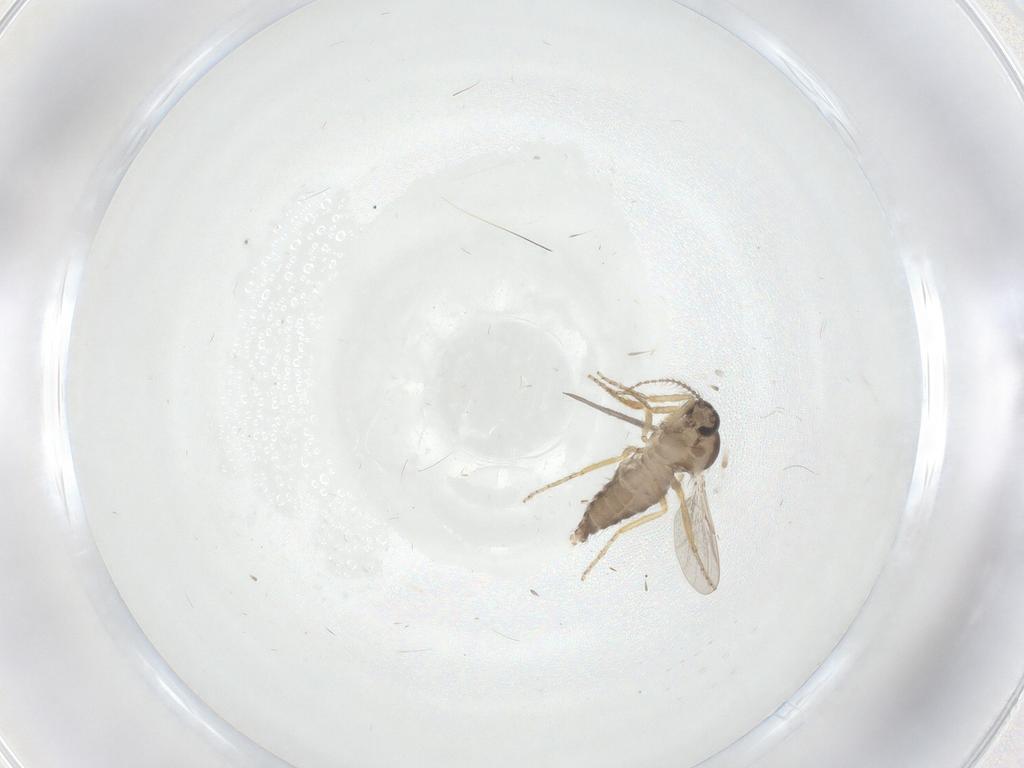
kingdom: Animalia
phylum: Arthropoda
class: Insecta
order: Diptera
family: Ceratopogonidae
